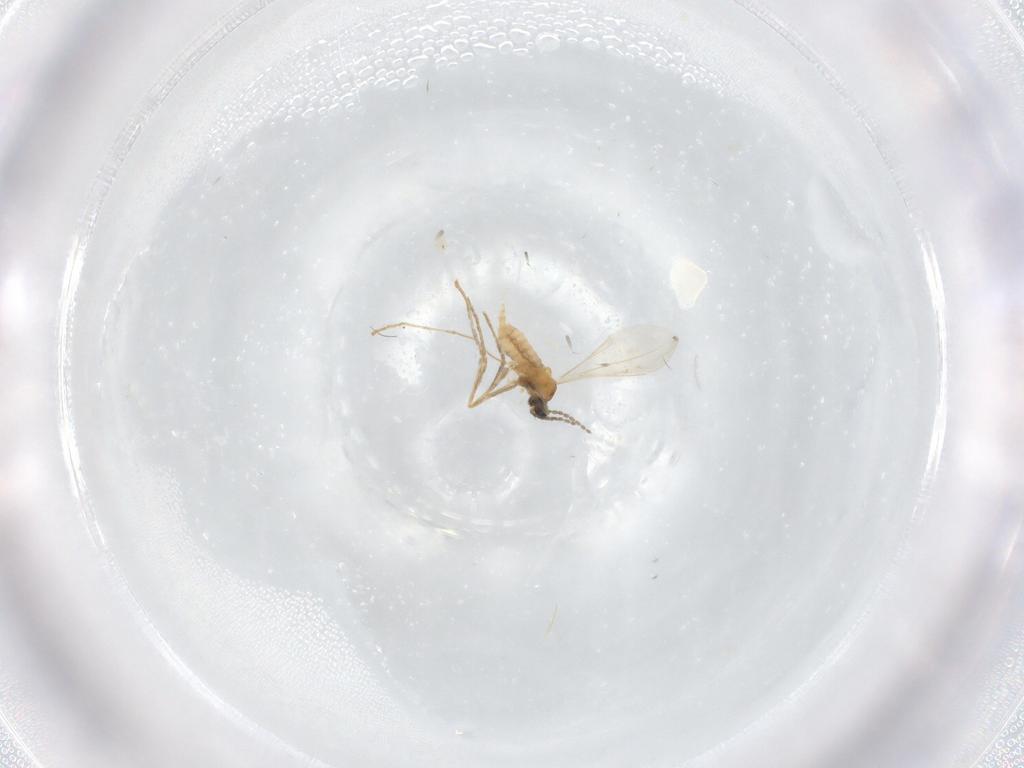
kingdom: Animalia
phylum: Arthropoda
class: Insecta
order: Diptera
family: Cecidomyiidae
